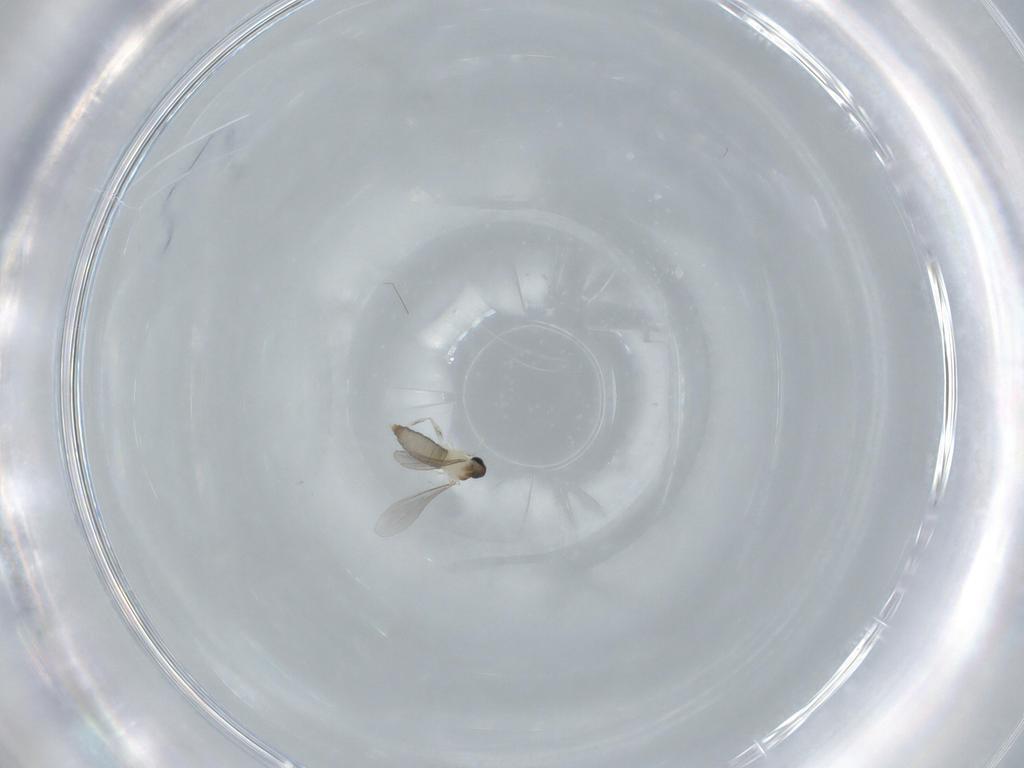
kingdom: Animalia
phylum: Arthropoda
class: Insecta
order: Diptera
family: Cecidomyiidae
